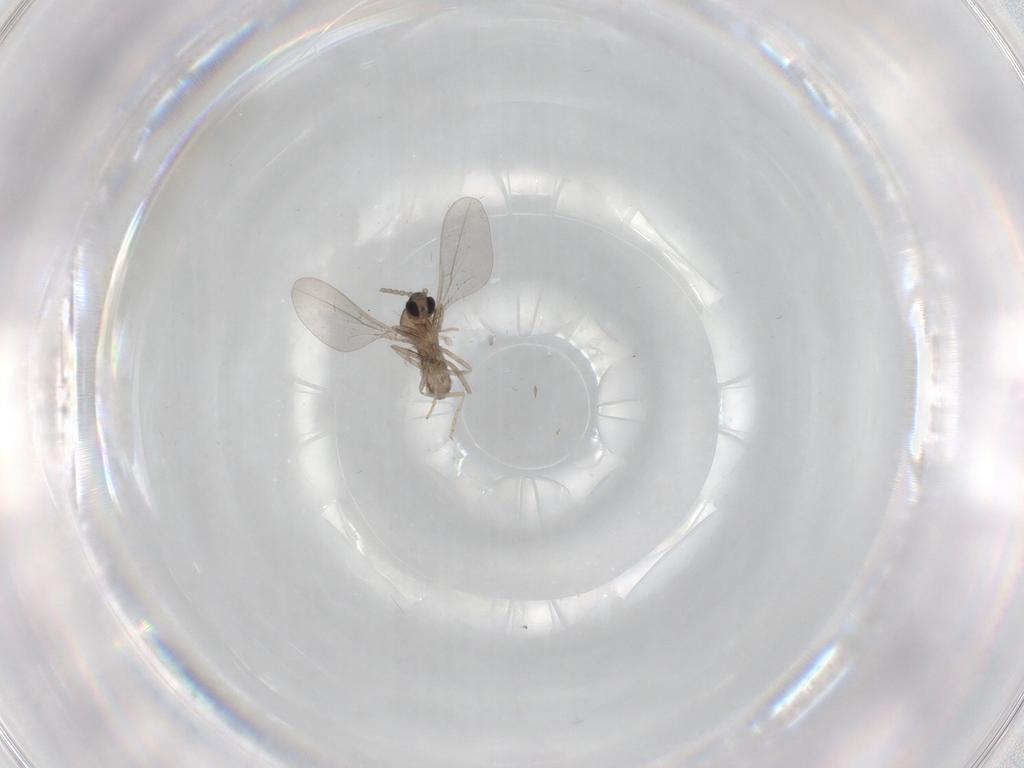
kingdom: Animalia
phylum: Arthropoda
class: Insecta
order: Diptera
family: Cecidomyiidae
